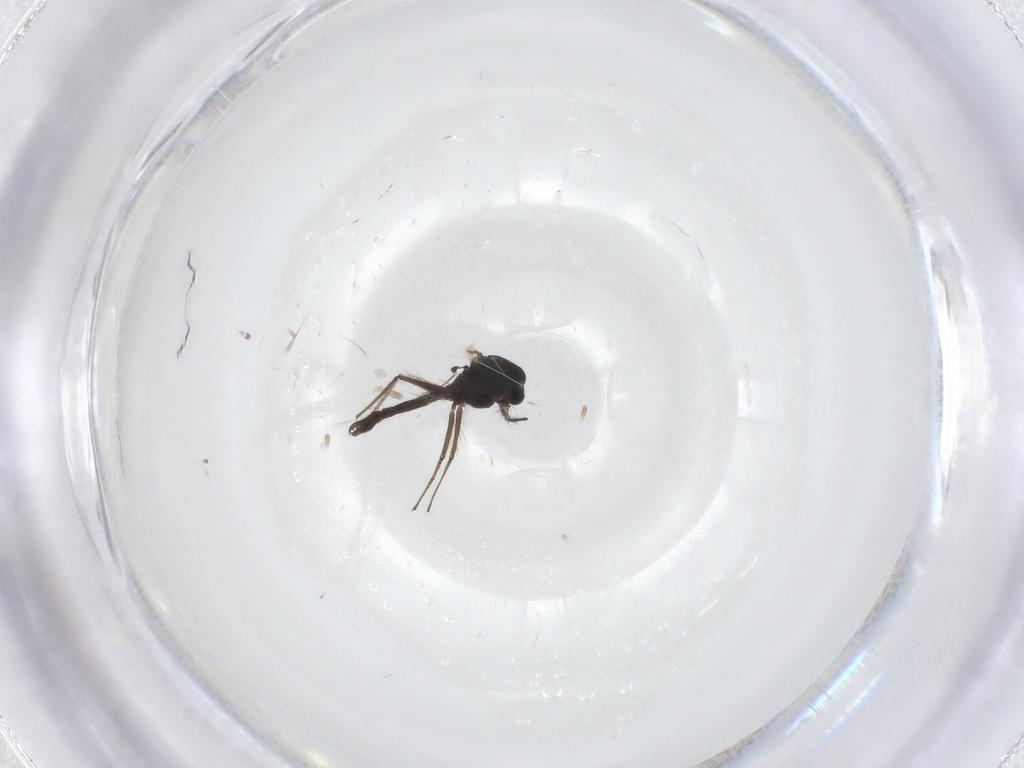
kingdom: Animalia
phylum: Arthropoda
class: Insecta
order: Diptera
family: Chironomidae
